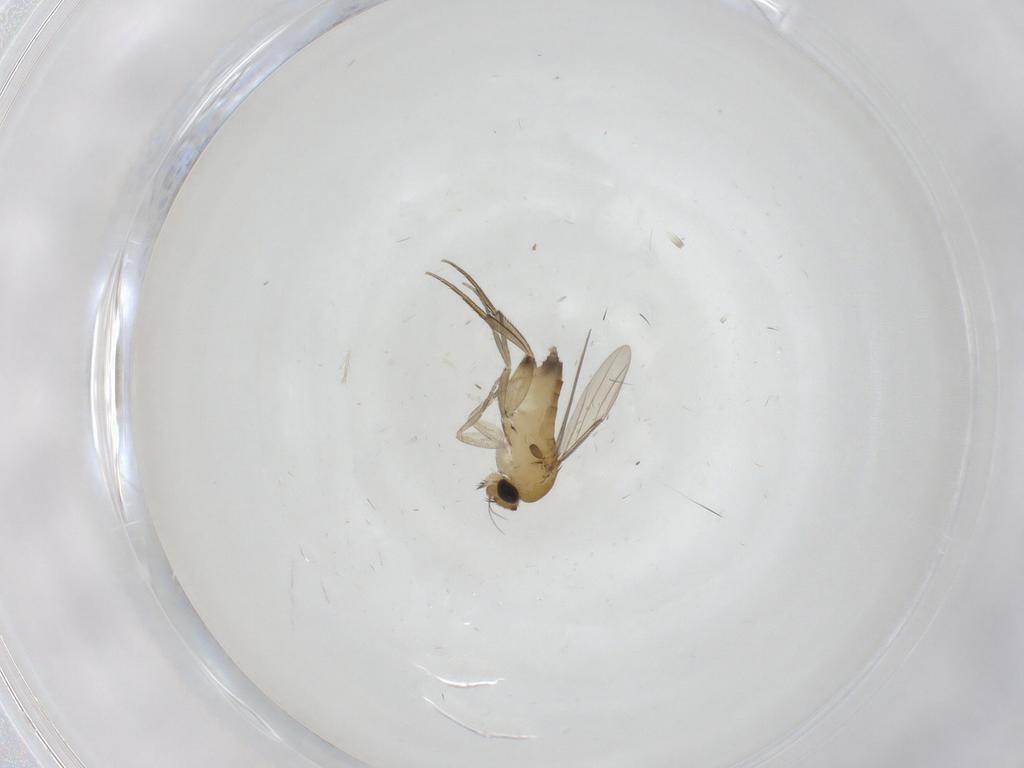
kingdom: Animalia
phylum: Arthropoda
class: Insecta
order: Diptera
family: Phoridae
